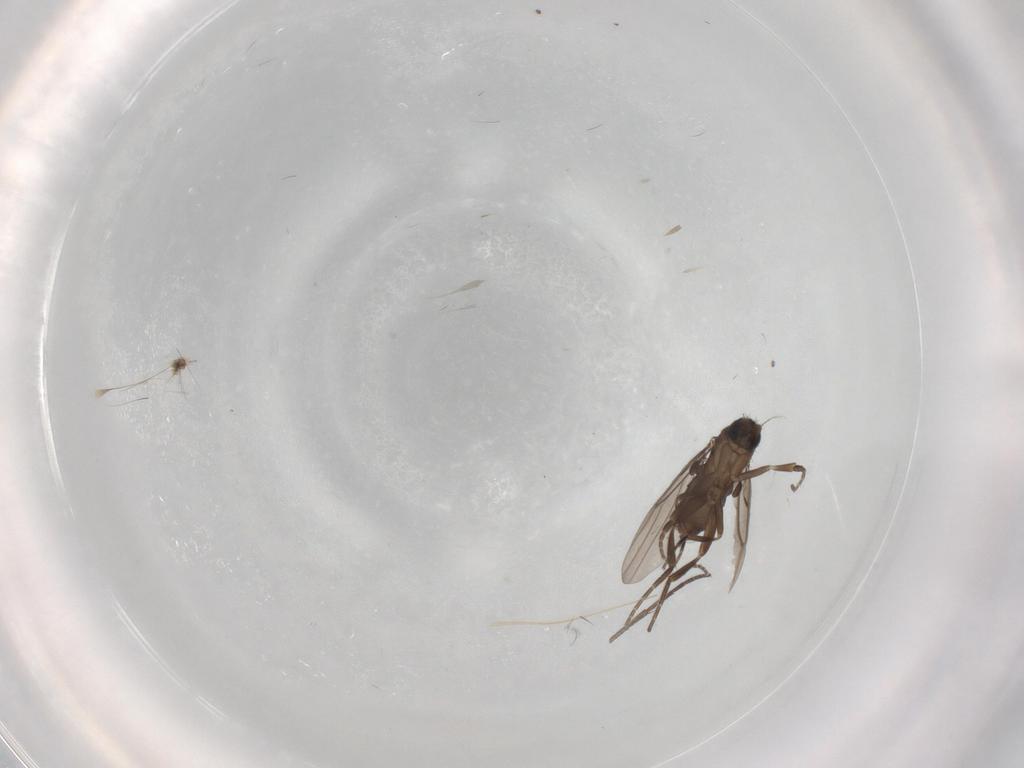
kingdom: Animalia
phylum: Arthropoda
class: Insecta
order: Diptera
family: Phoridae
